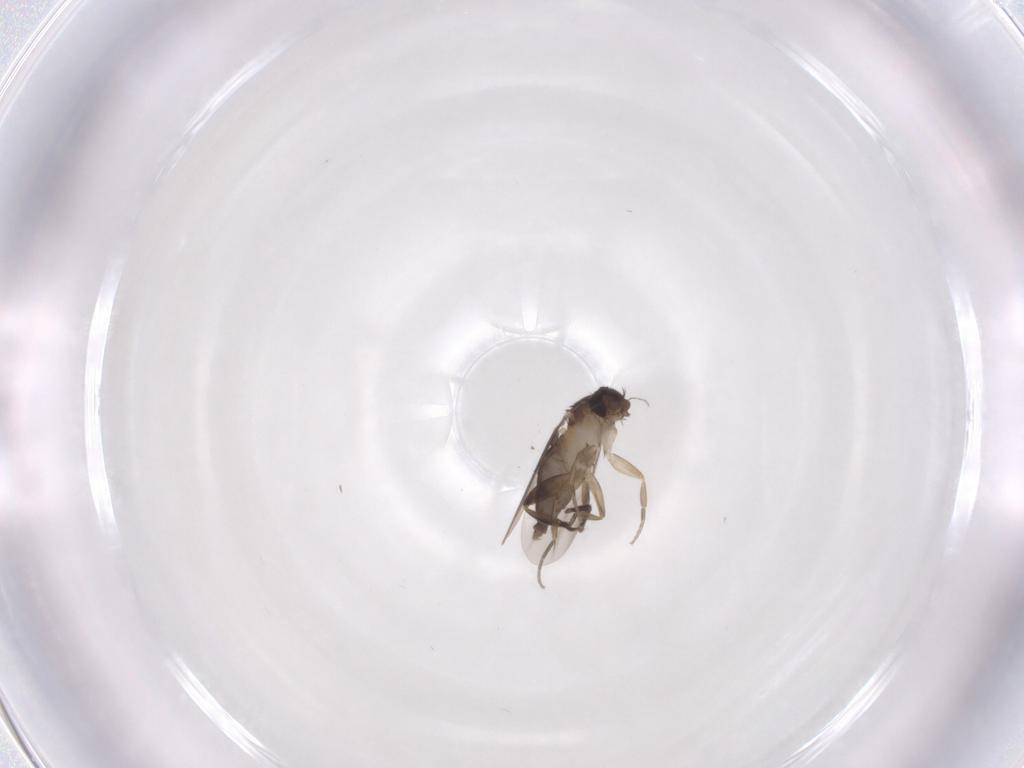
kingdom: Animalia
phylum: Arthropoda
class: Insecta
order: Diptera
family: Phoridae
